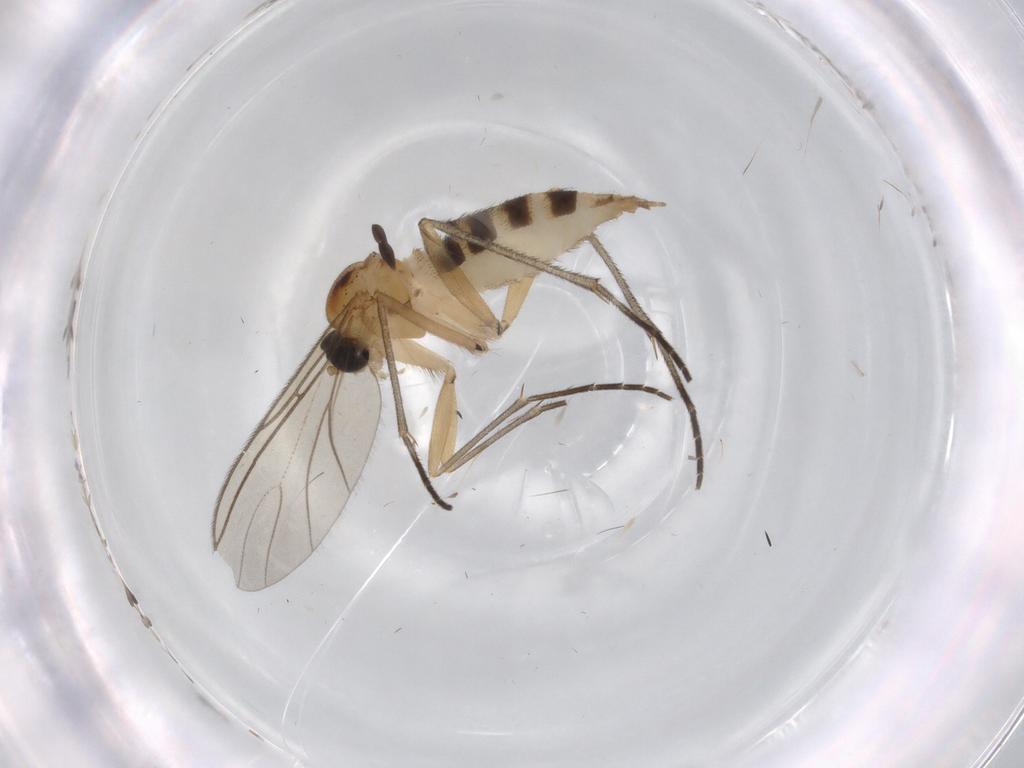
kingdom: Animalia
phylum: Arthropoda
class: Insecta
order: Diptera
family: Sciaridae
